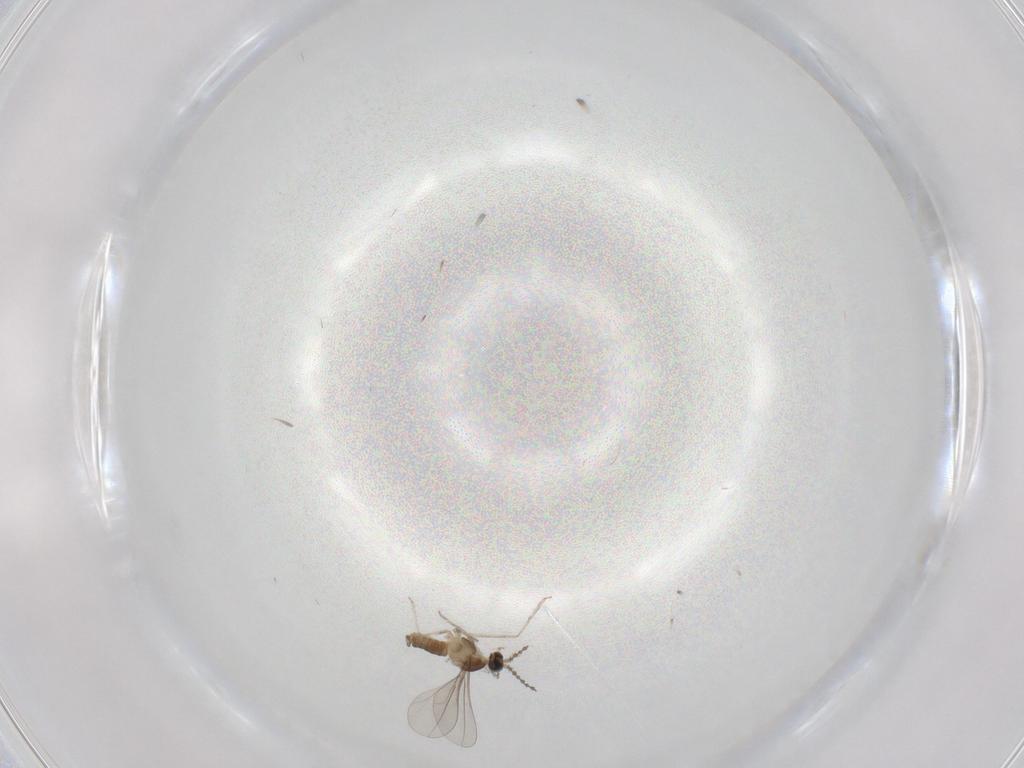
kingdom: Animalia
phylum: Arthropoda
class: Insecta
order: Diptera
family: Cecidomyiidae
